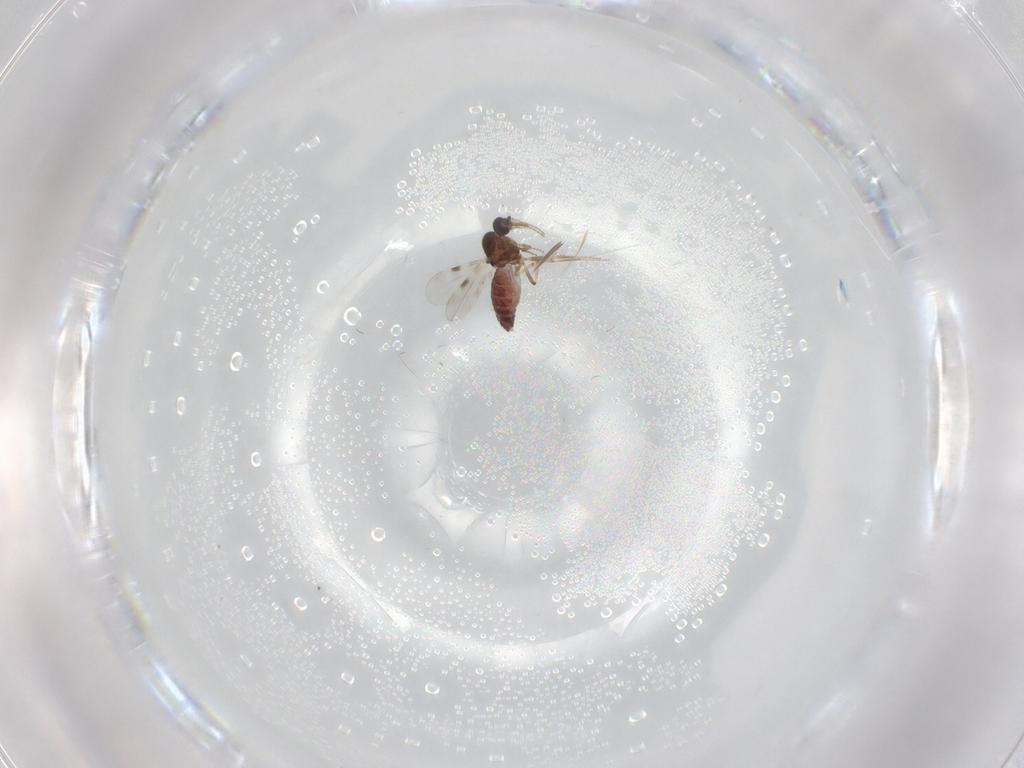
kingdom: Animalia
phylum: Arthropoda
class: Insecta
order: Diptera
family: Cecidomyiidae
